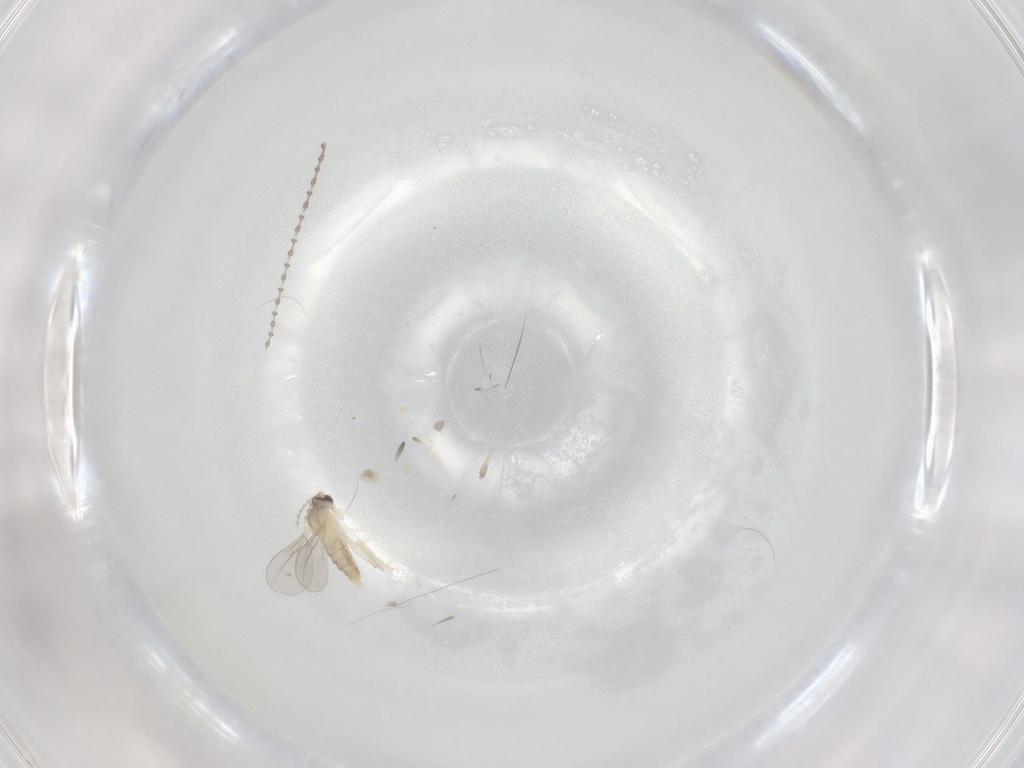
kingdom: Animalia
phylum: Arthropoda
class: Insecta
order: Diptera
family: Cecidomyiidae
